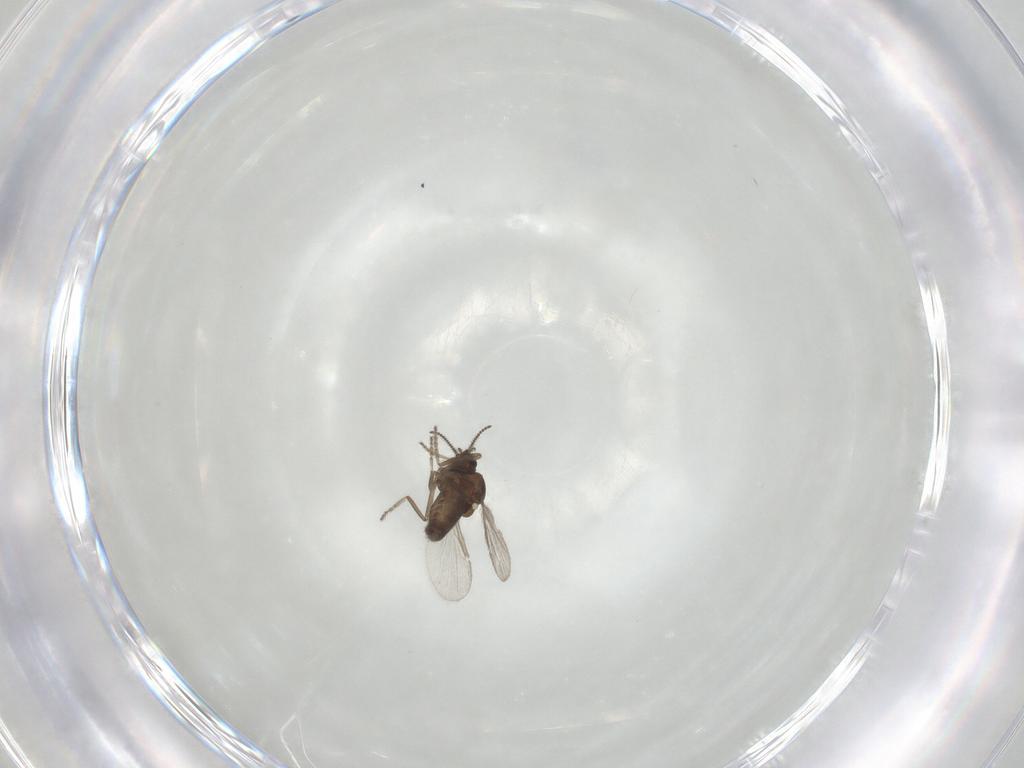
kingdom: Animalia
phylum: Arthropoda
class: Insecta
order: Diptera
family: Ceratopogonidae
